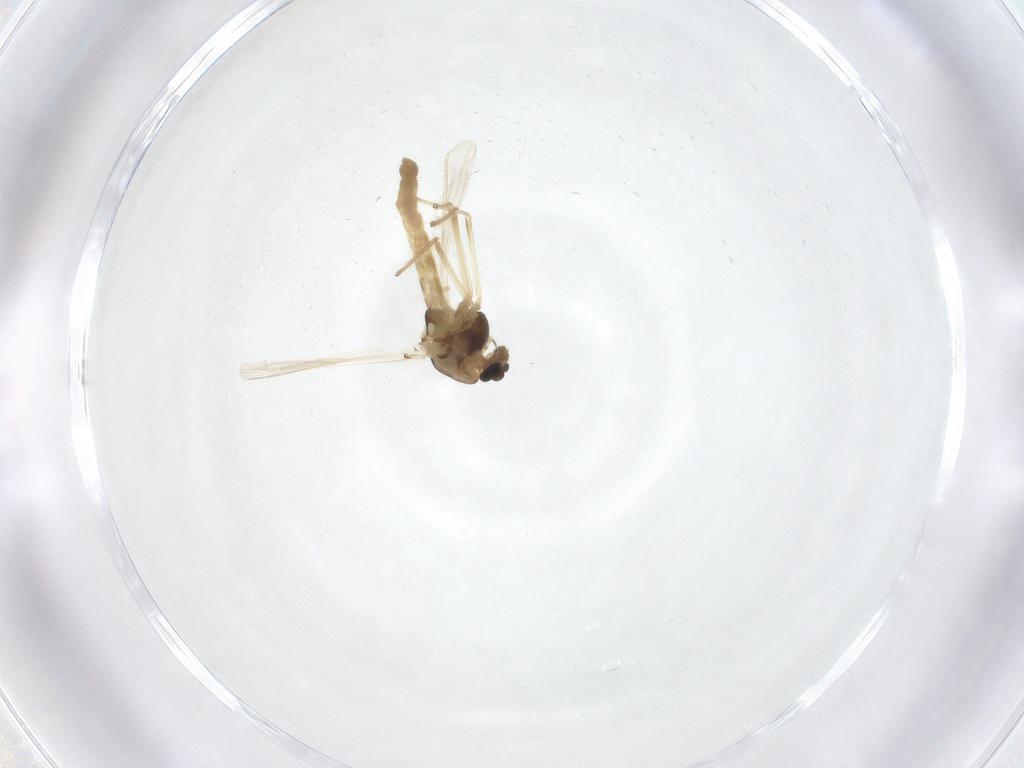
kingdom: Animalia
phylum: Arthropoda
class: Insecta
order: Diptera
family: Chironomidae
